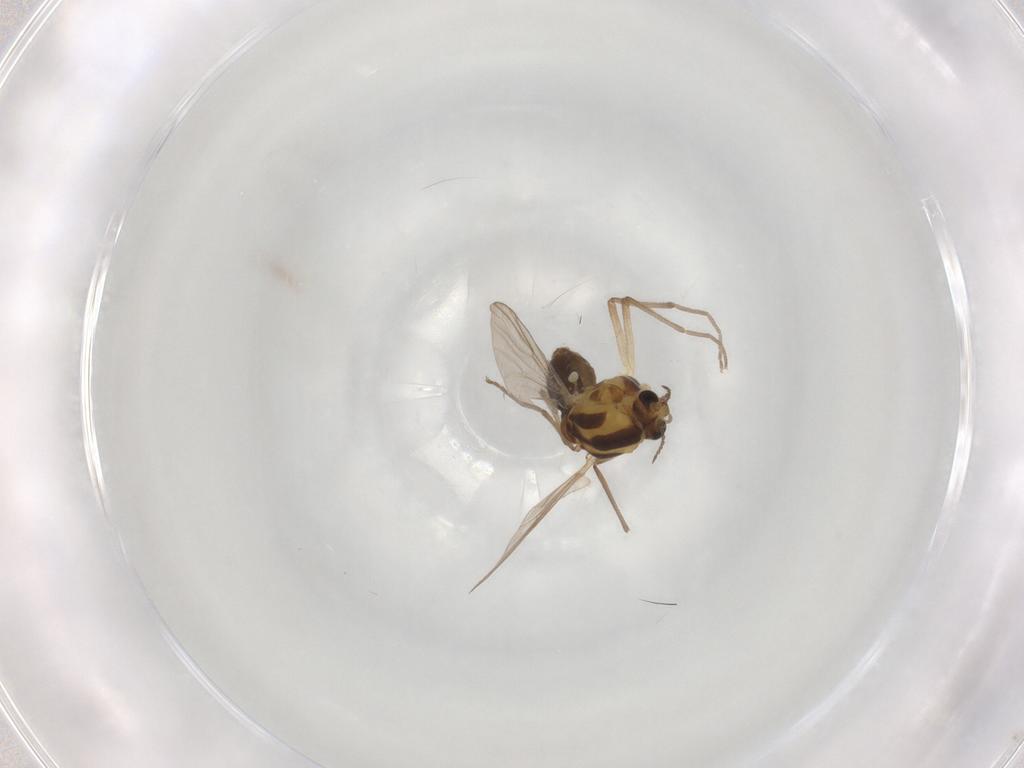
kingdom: Animalia
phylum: Arthropoda
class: Insecta
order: Diptera
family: Chironomidae
